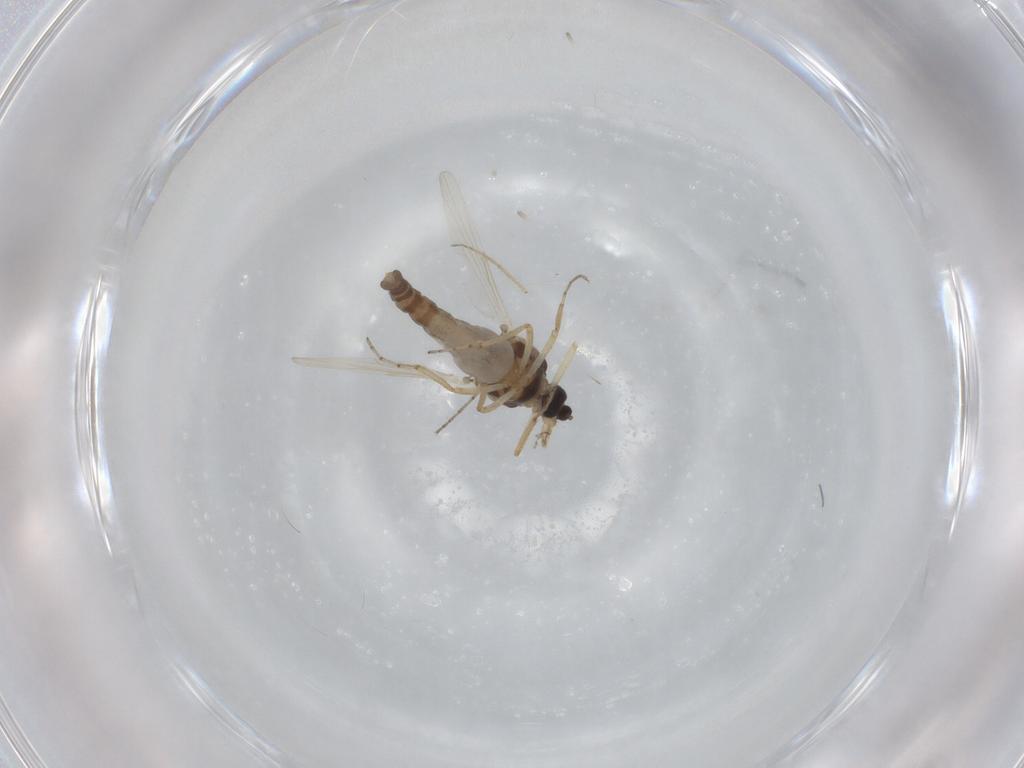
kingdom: Animalia
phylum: Arthropoda
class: Insecta
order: Diptera
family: Ceratopogonidae
